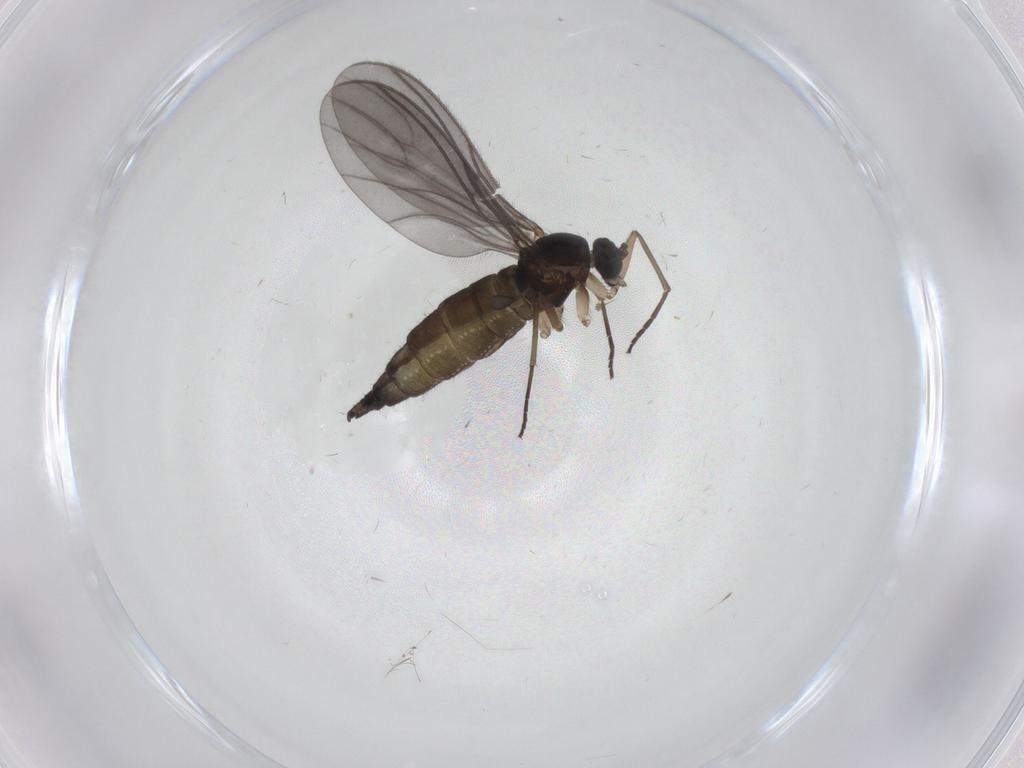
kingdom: Animalia
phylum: Arthropoda
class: Insecta
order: Diptera
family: Sciaridae
